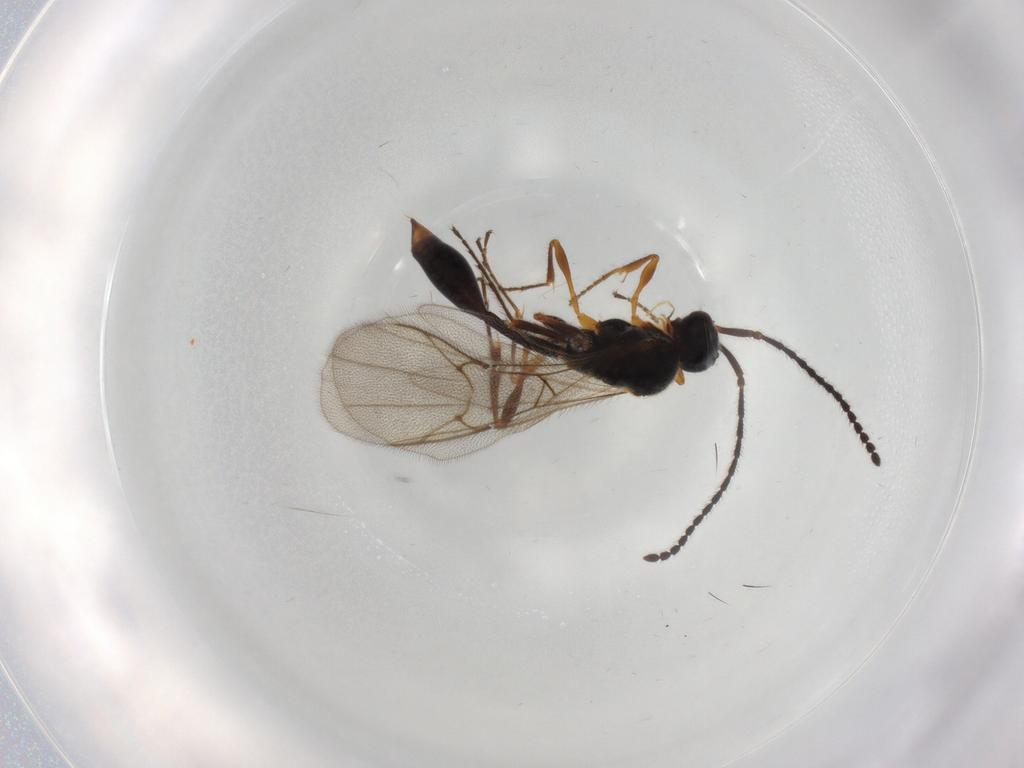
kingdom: Animalia
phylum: Arthropoda
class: Insecta
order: Hymenoptera
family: Diapriidae
